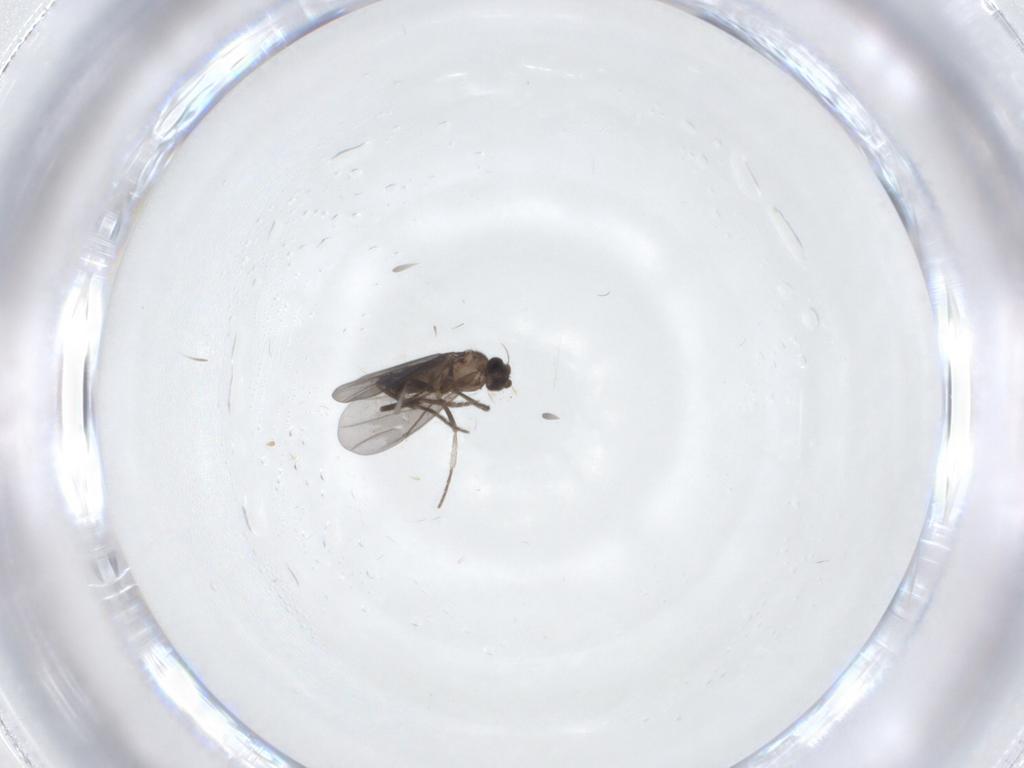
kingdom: Animalia
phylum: Arthropoda
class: Insecta
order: Diptera
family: Phoridae
